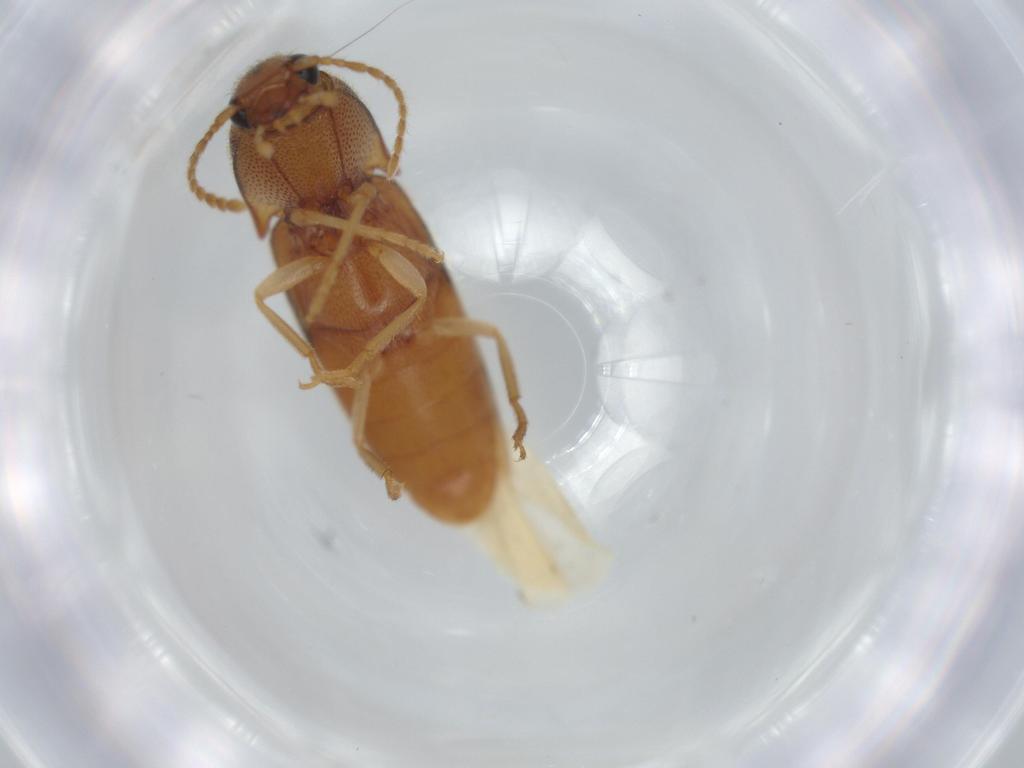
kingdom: Animalia
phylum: Arthropoda
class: Insecta
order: Coleoptera
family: Elateridae
